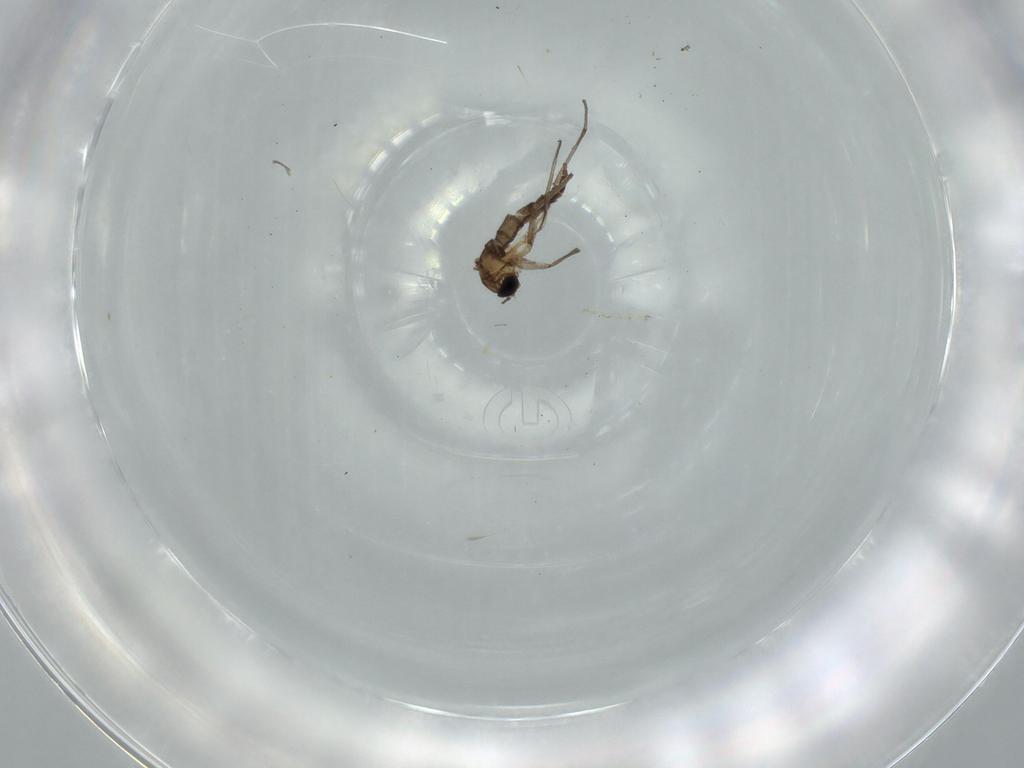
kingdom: Animalia
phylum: Arthropoda
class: Insecta
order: Diptera
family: Sciaridae
